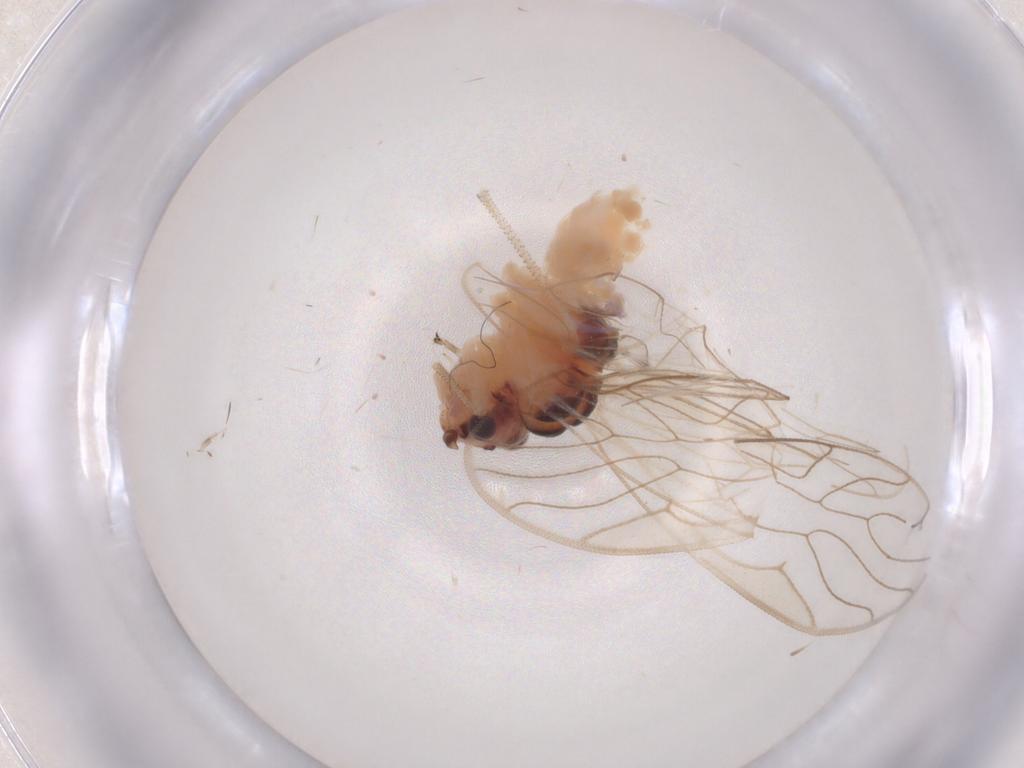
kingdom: Animalia
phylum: Arthropoda
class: Insecta
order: Psocodea
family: Amphipsocidae
